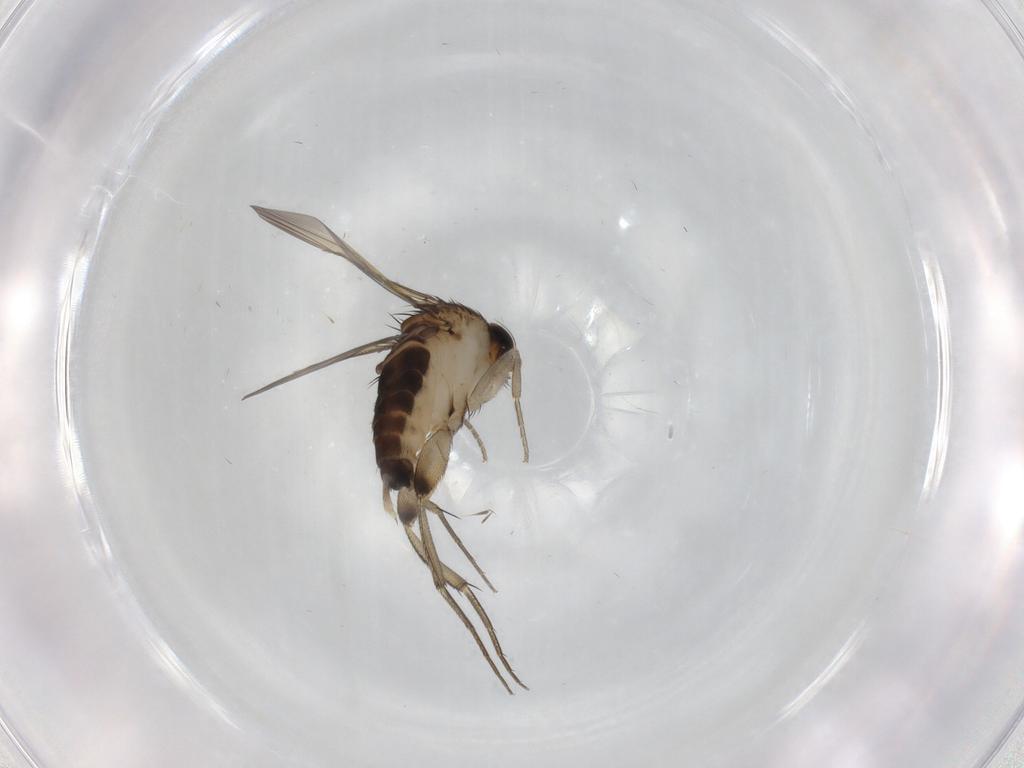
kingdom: Animalia
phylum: Arthropoda
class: Insecta
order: Diptera
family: Phoridae
